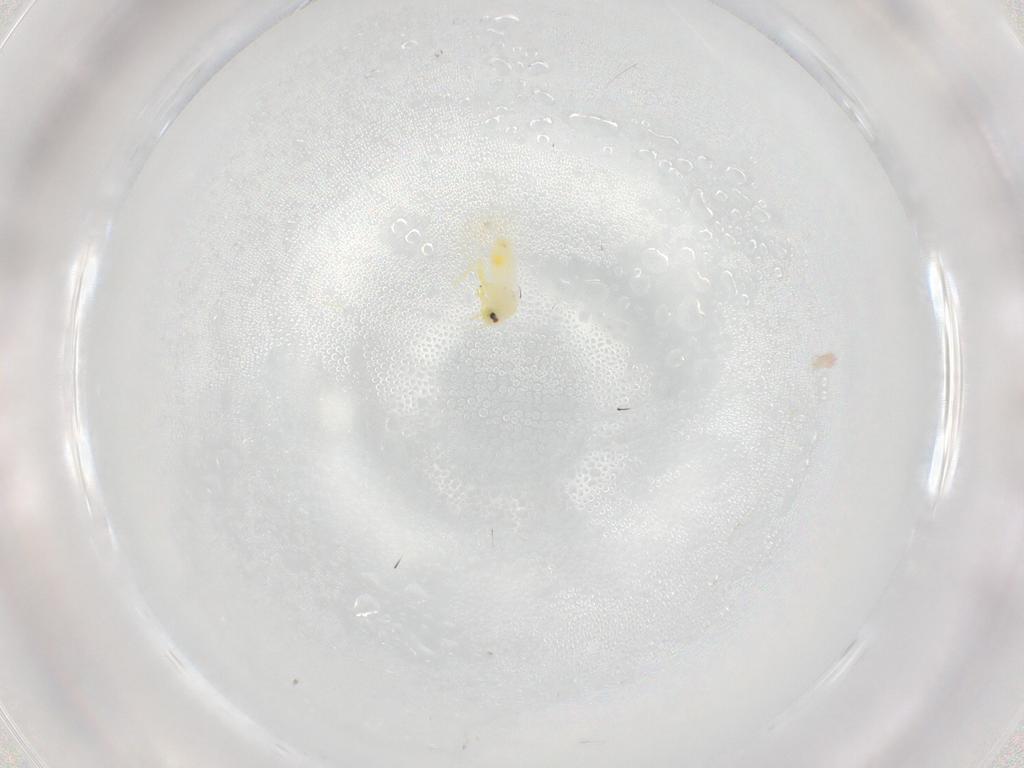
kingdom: Animalia
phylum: Arthropoda
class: Insecta
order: Hemiptera
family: Aleyrodidae
